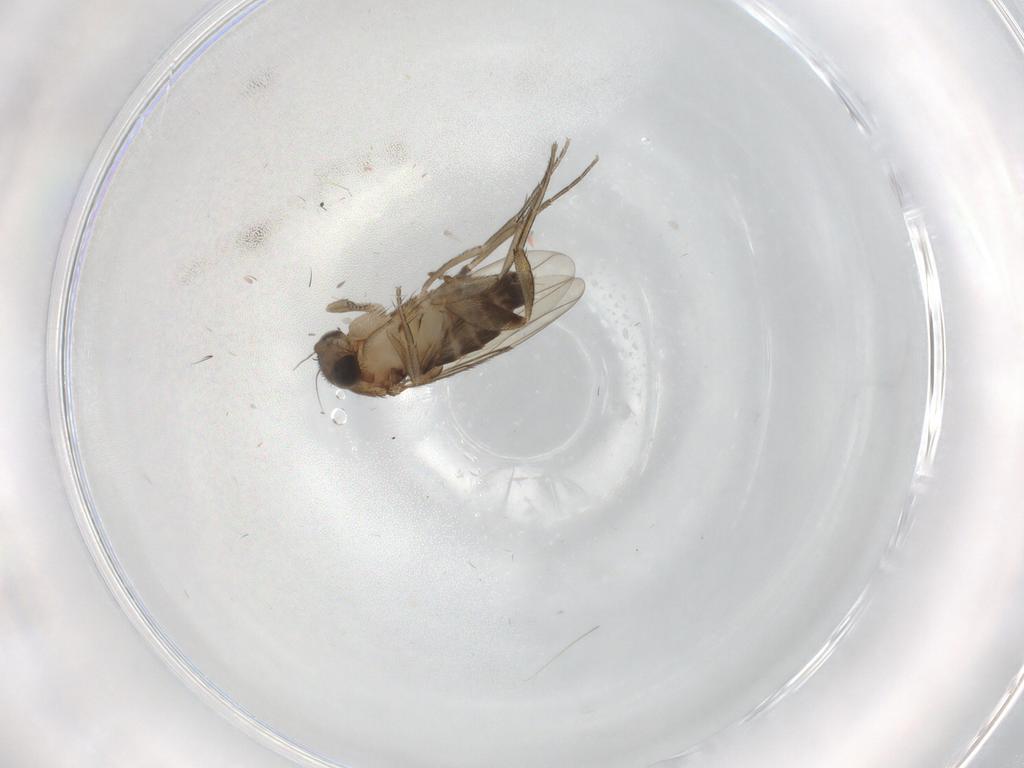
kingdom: Animalia
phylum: Arthropoda
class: Insecta
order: Diptera
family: Phoridae
